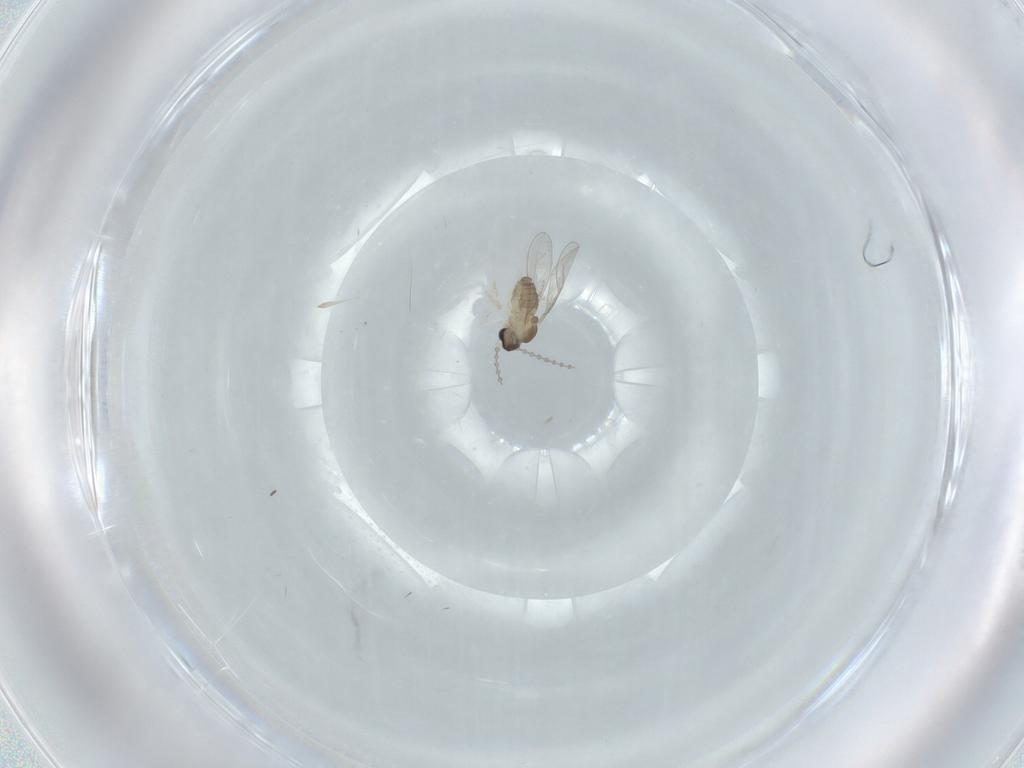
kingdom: Animalia
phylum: Arthropoda
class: Insecta
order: Diptera
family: Cecidomyiidae
